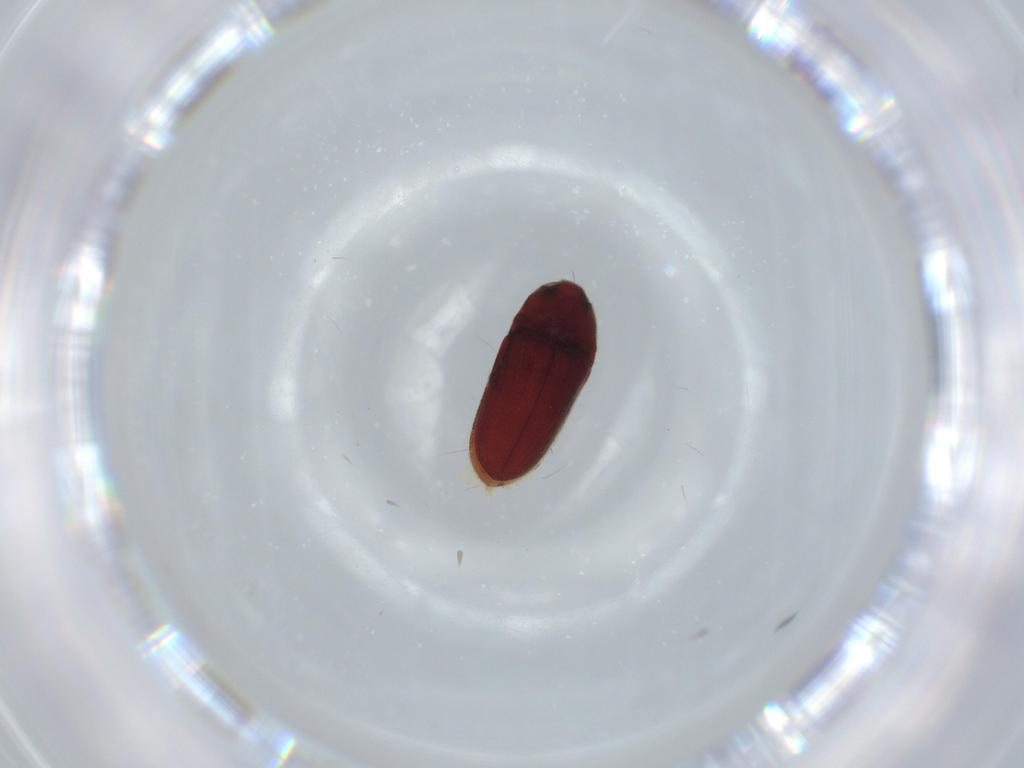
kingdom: Animalia
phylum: Arthropoda
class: Insecta
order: Coleoptera
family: Throscidae
